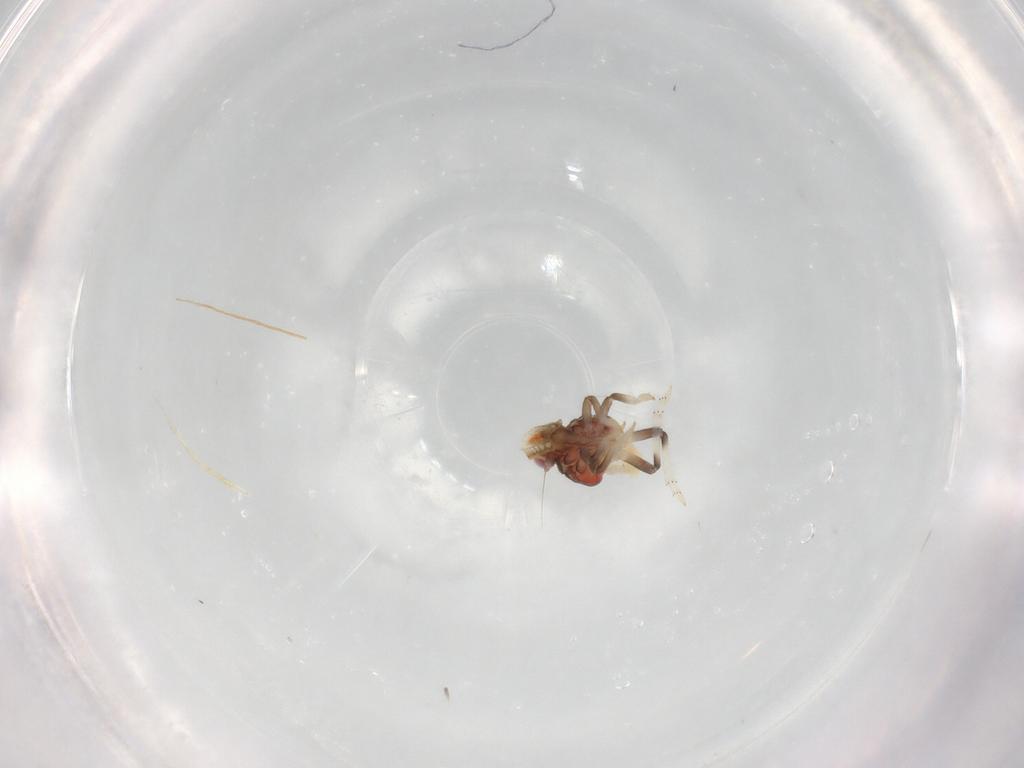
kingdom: Animalia
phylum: Arthropoda
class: Insecta
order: Hemiptera
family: Tropiduchidae
